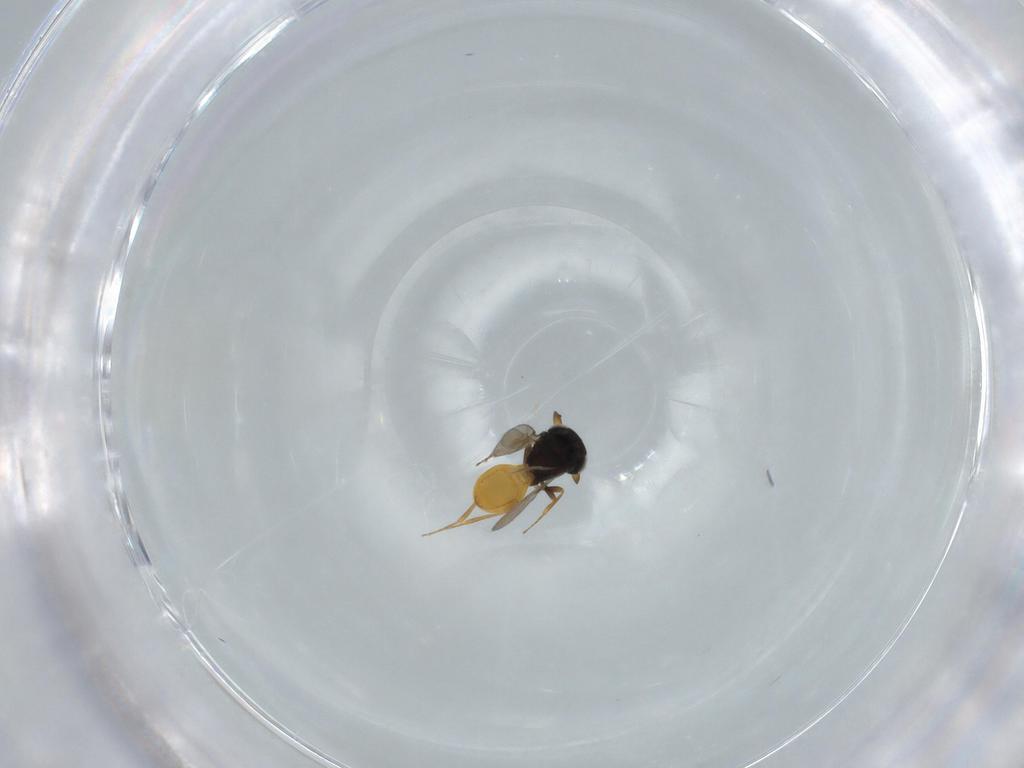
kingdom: Animalia
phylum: Arthropoda
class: Insecta
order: Hymenoptera
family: Scelionidae
